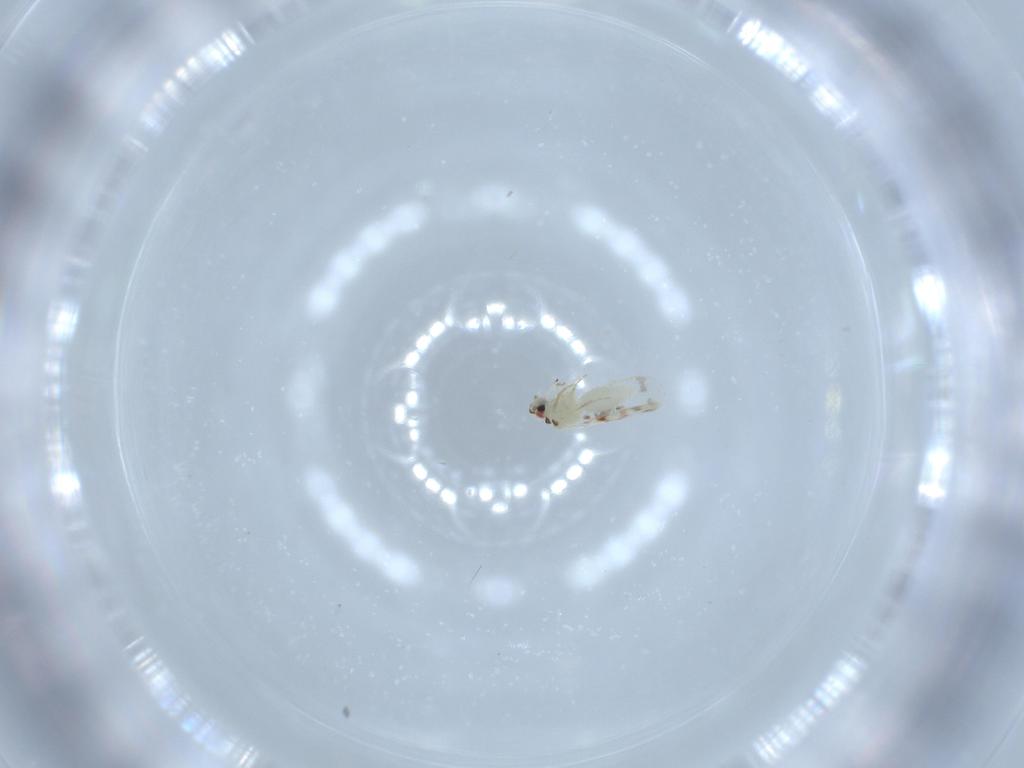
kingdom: Animalia
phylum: Arthropoda
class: Insecta
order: Hemiptera
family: Aleyrodidae
